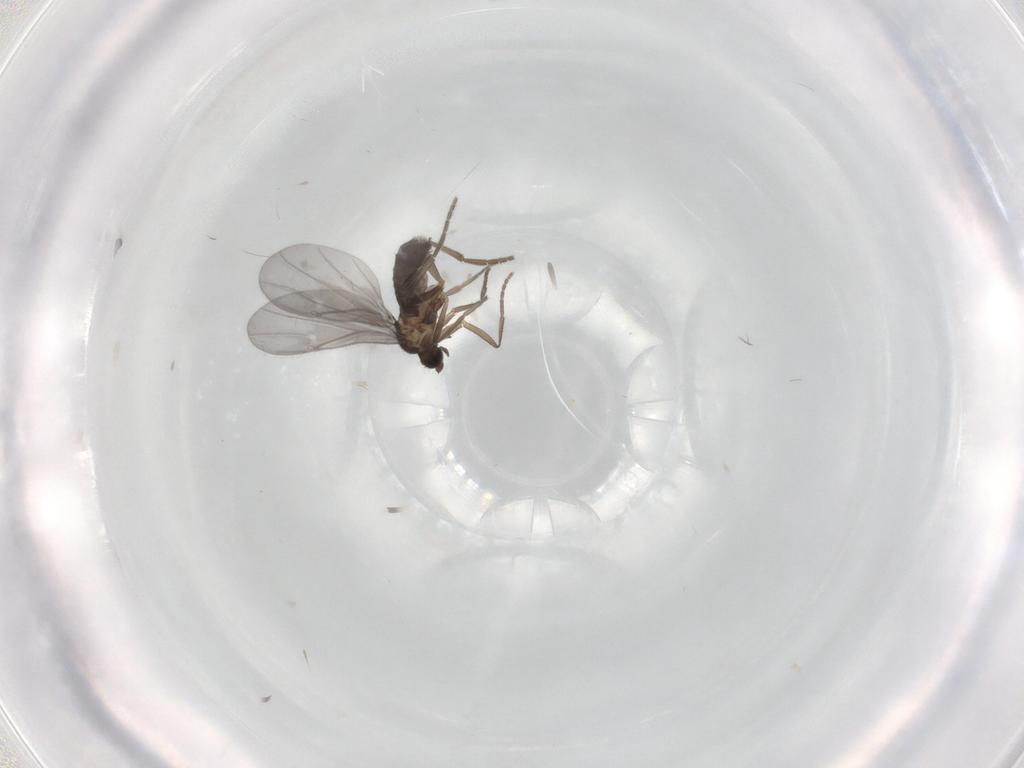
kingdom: Animalia
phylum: Arthropoda
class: Insecta
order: Diptera
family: Phoridae
